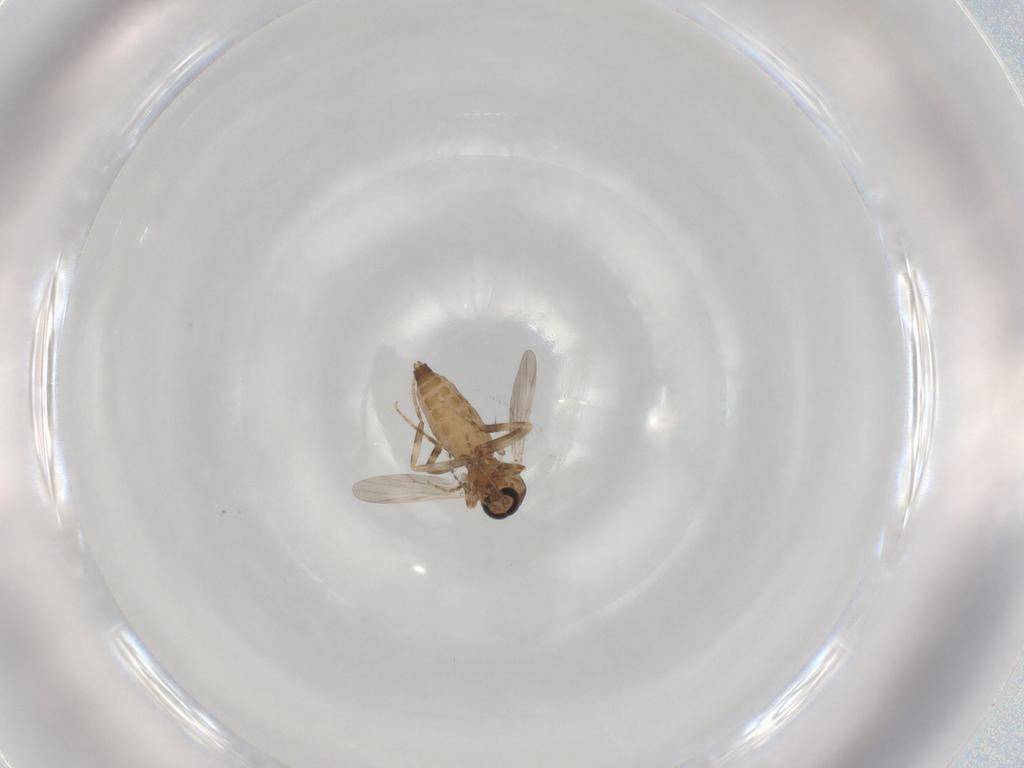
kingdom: Animalia
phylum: Arthropoda
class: Insecta
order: Diptera
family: Ceratopogonidae
